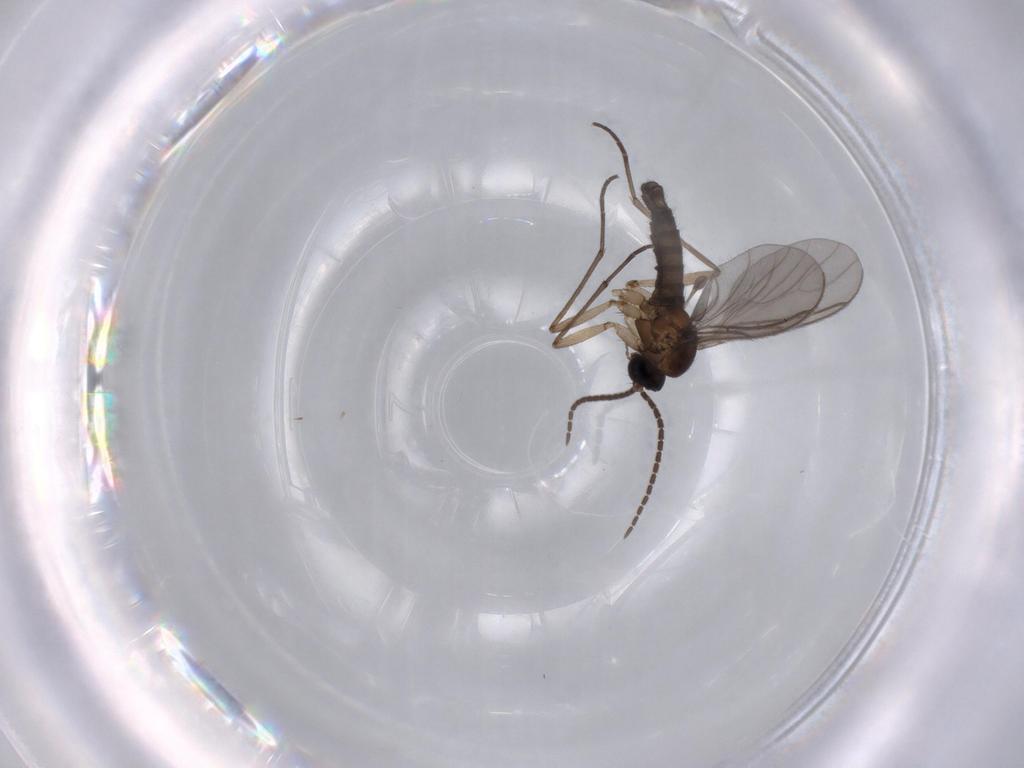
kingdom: Animalia
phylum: Arthropoda
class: Insecta
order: Diptera
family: Sciaridae
